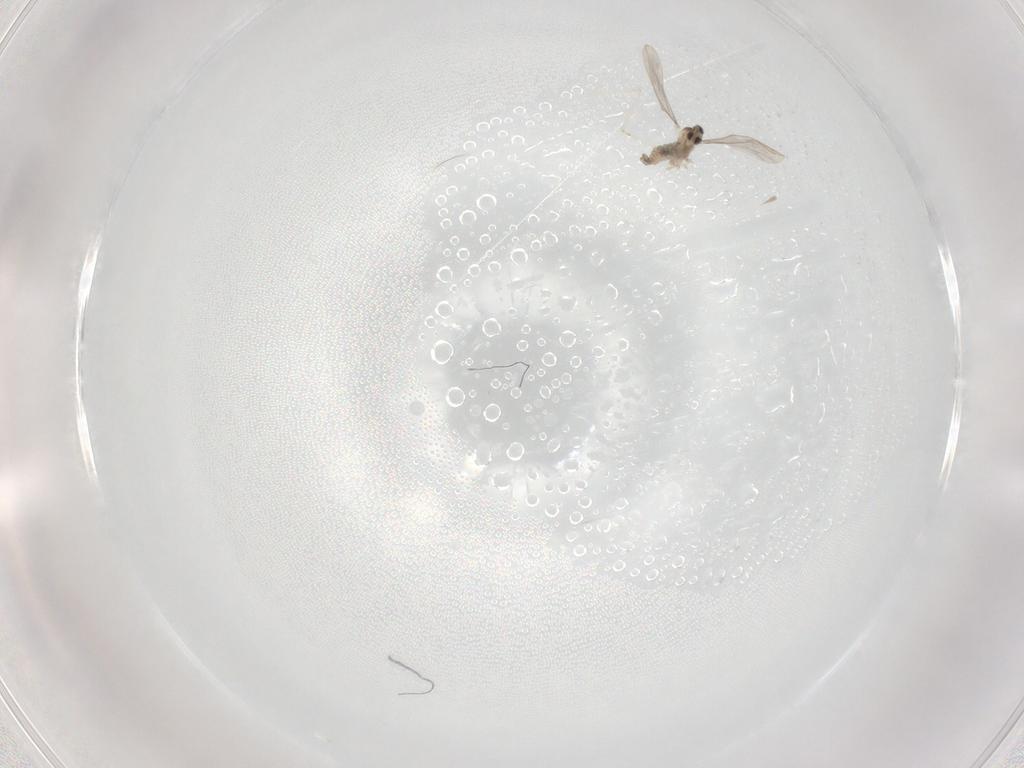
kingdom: Animalia
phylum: Arthropoda
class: Insecta
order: Diptera
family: Cecidomyiidae
